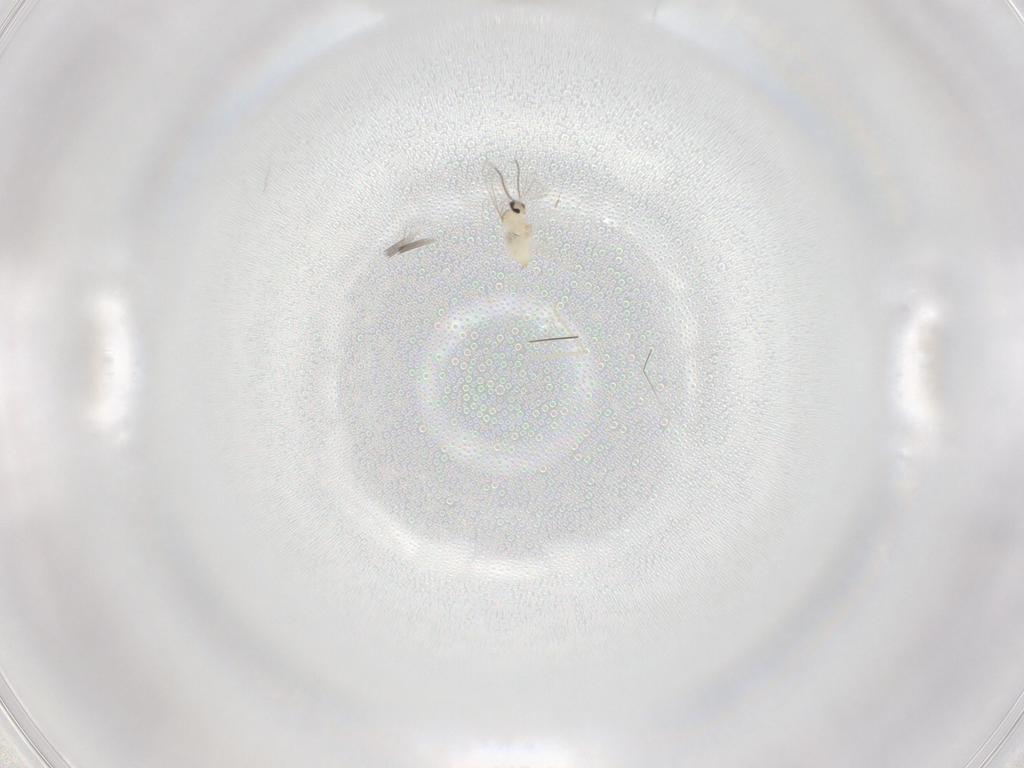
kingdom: Animalia
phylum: Arthropoda
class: Insecta
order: Diptera
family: Cecidomyiidae
